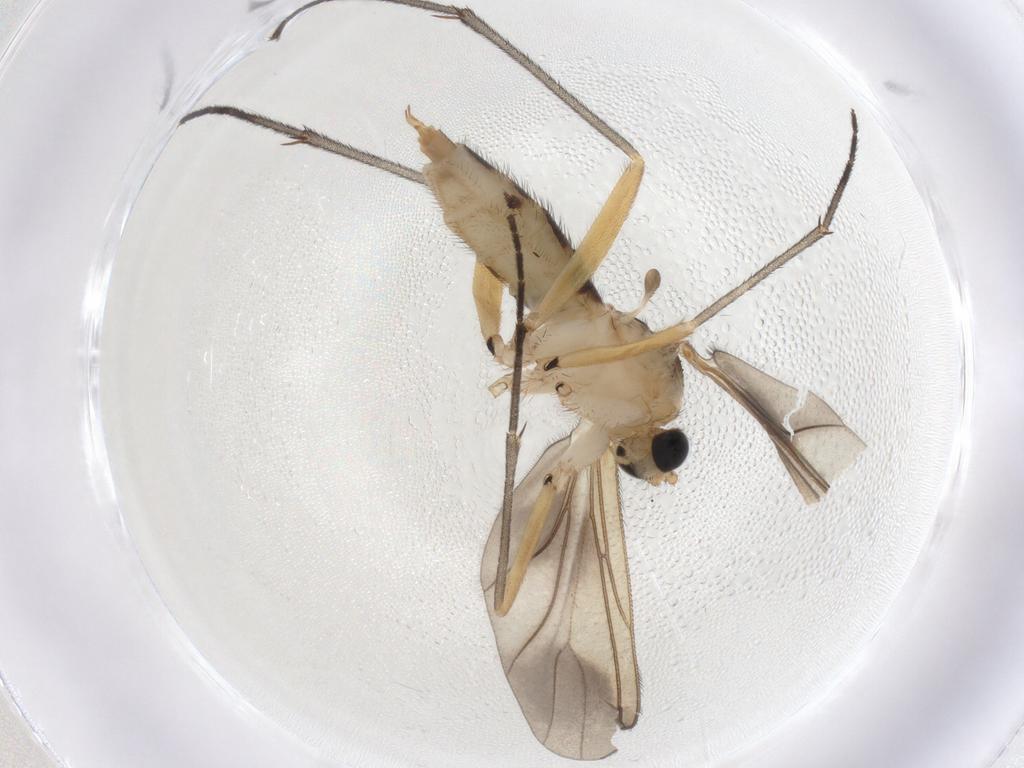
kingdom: Animalia
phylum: Arthropoda
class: Insecta
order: Diptera
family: Sciaridae
